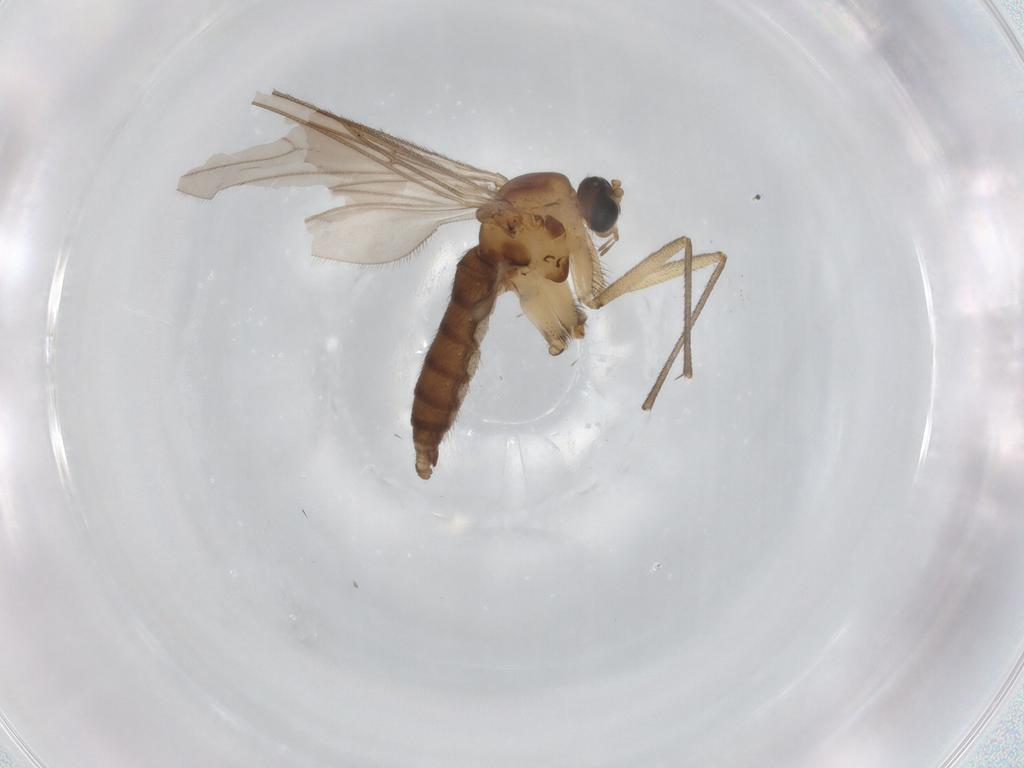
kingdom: Animalia
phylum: Arthropoda
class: Insecta
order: Diptera
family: Sciaridae
